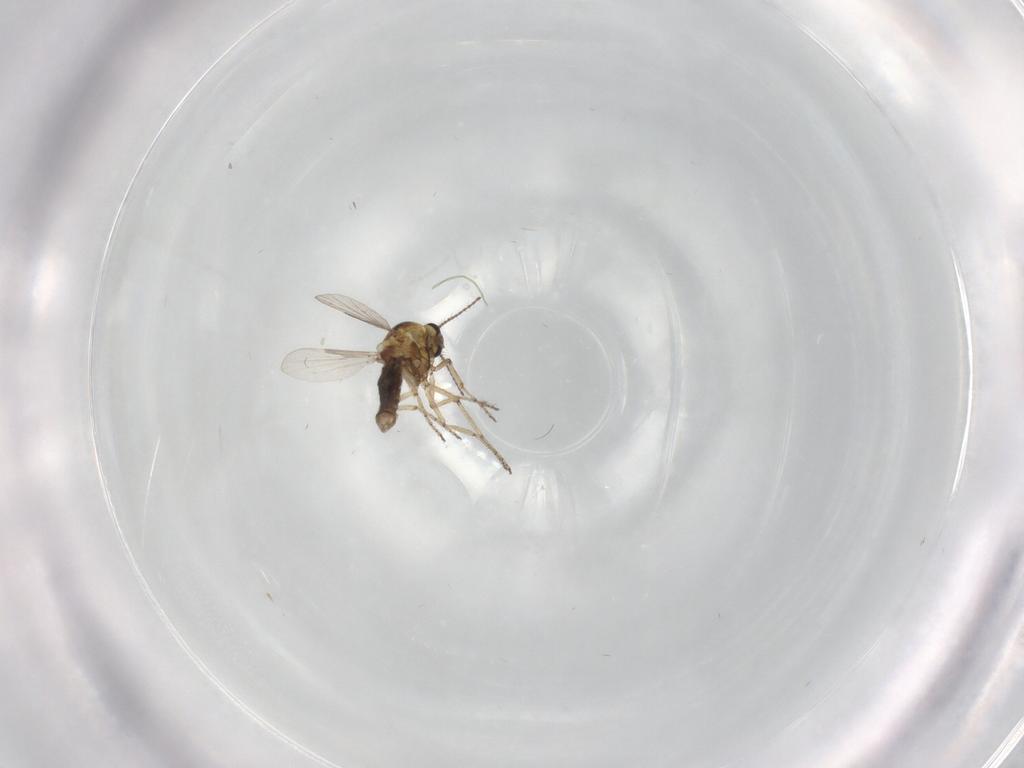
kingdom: Animalia
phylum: Arthropoda
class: Insecta
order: Diptera
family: Ceratopogonidae
